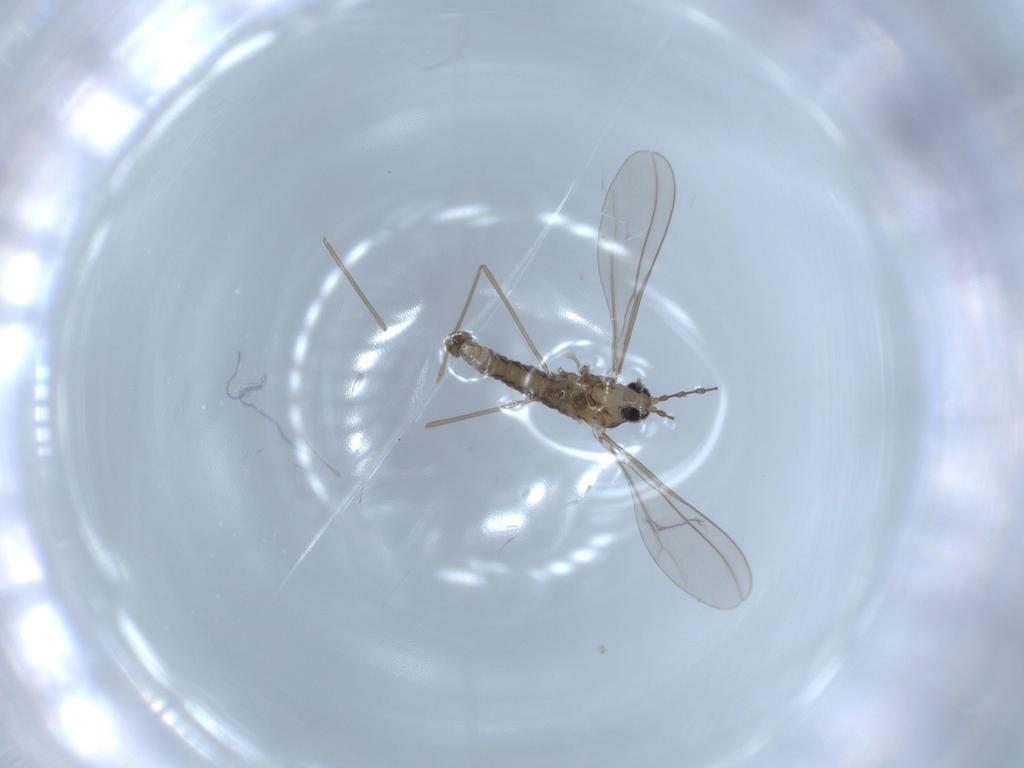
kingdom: Animalia
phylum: Arthropoda
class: Insecta
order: Diptera
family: Cecidomyiidae
